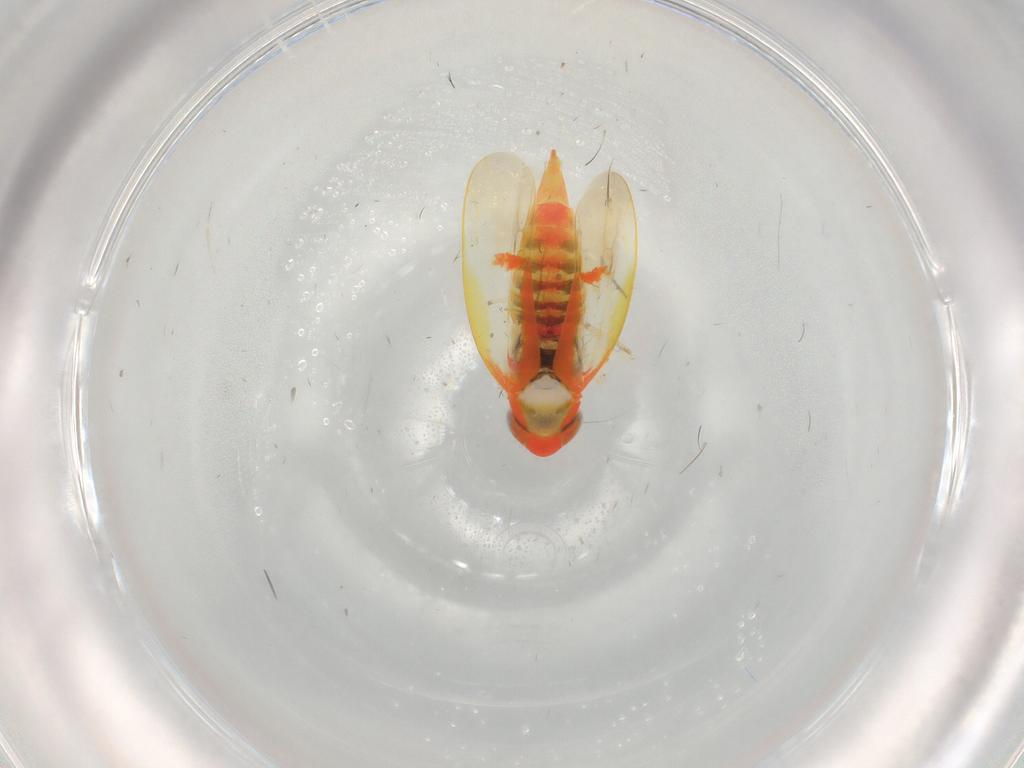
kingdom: Animalia
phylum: Arthropoda
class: Insecta
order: Hemiptera
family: Cicadellidae
